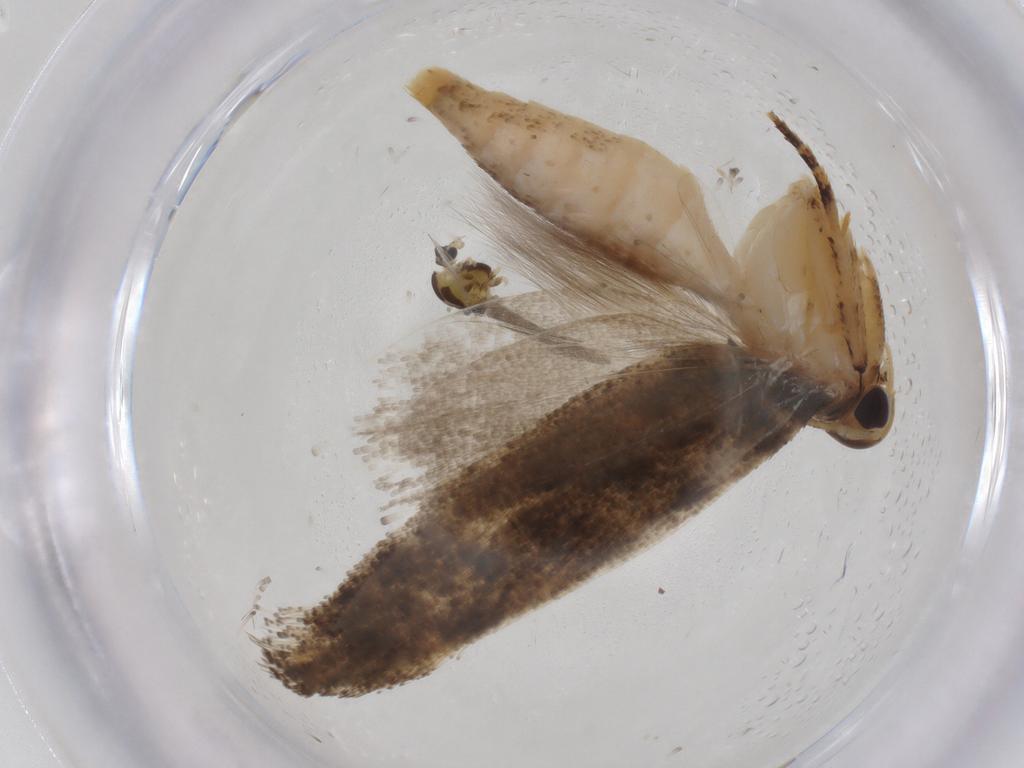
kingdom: Animalia
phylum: Arthropoda
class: Insecta
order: Lepidoptera
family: Gelechiidae
